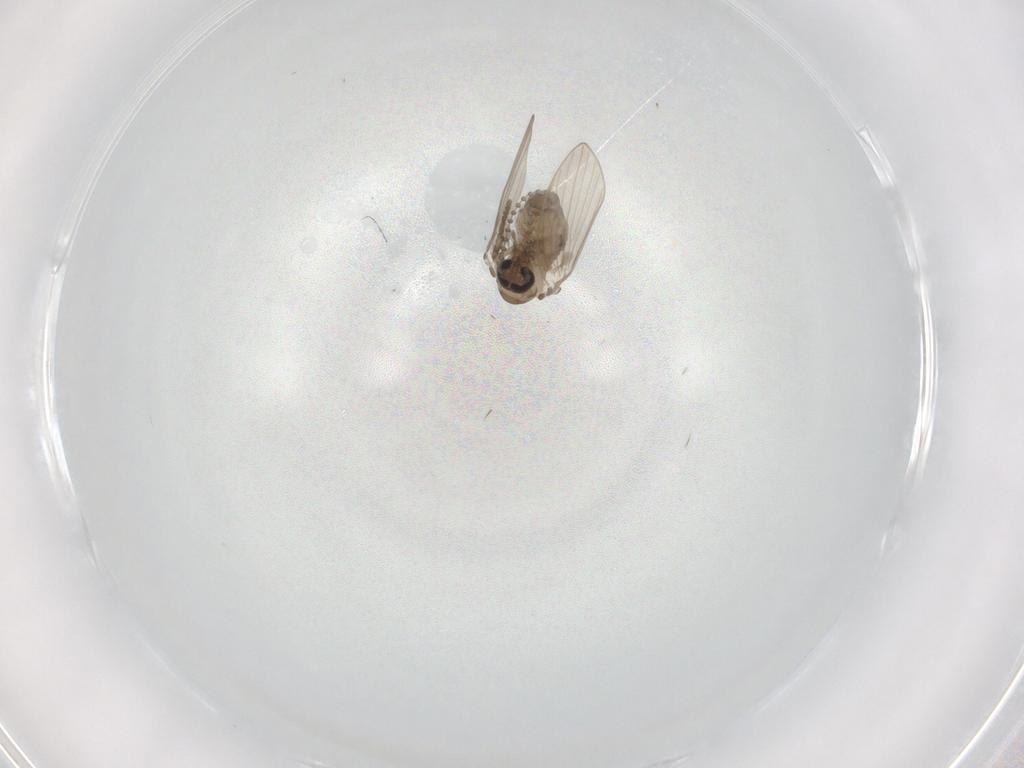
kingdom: Animalia
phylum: Arthropoda
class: Insecta
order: Diptera
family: Psychodidae
